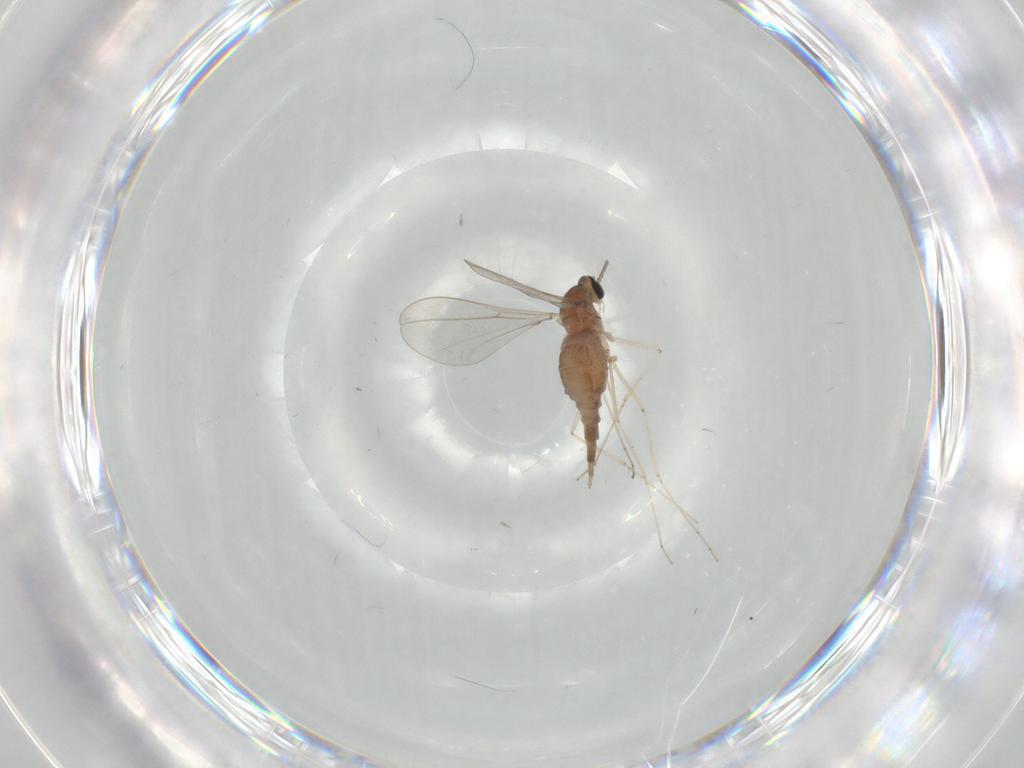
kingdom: Animalia
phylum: Arthropoda
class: Insecta
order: Diptera
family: Cecidomyiidae
